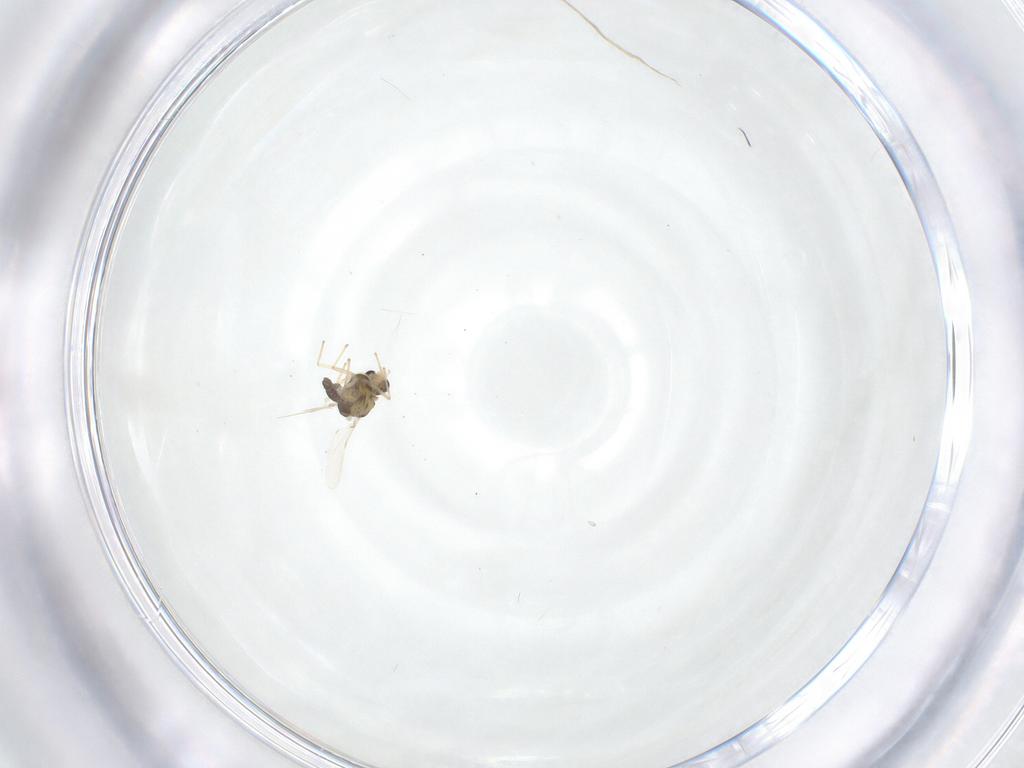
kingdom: Animalia
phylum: Arthropoda
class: Insecta
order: Diptera
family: Chironomidae
